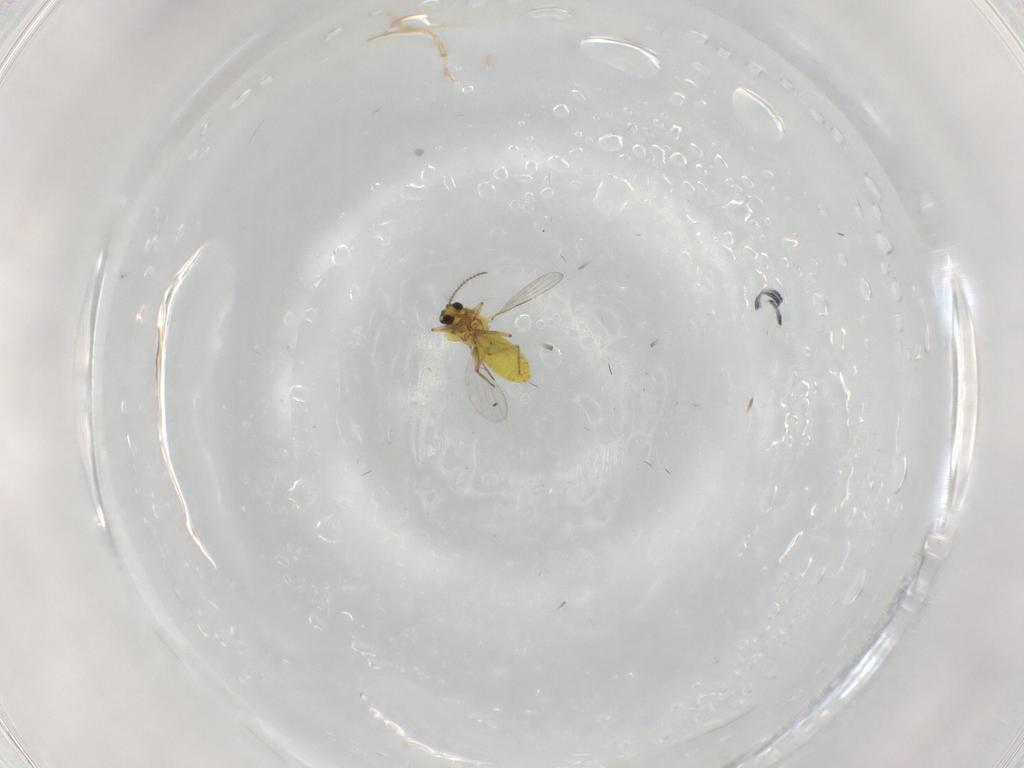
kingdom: Animalia
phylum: Arthropoda
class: Insecta
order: Diptera
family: Ceratopogonidae
